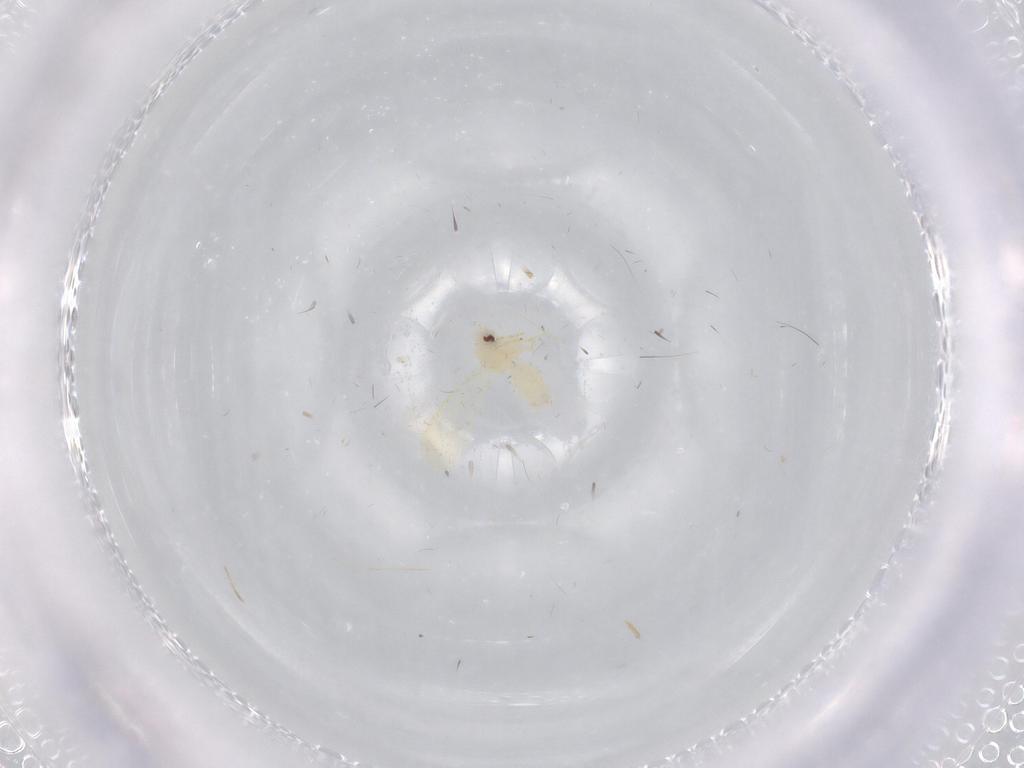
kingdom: Animalia
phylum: Arthropoda
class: Insecta
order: Hemiptera
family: Aleyrodidae
